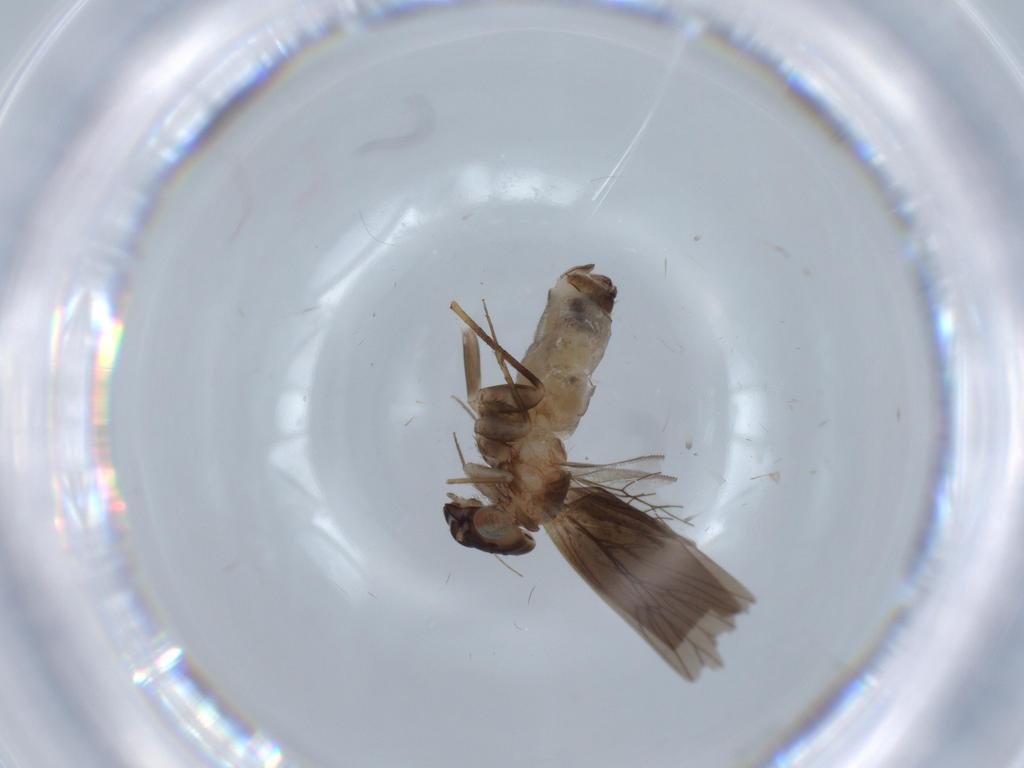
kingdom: Animalia
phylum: Arthropoda
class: Insecta
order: Psocodea
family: Lepidopsocidae
